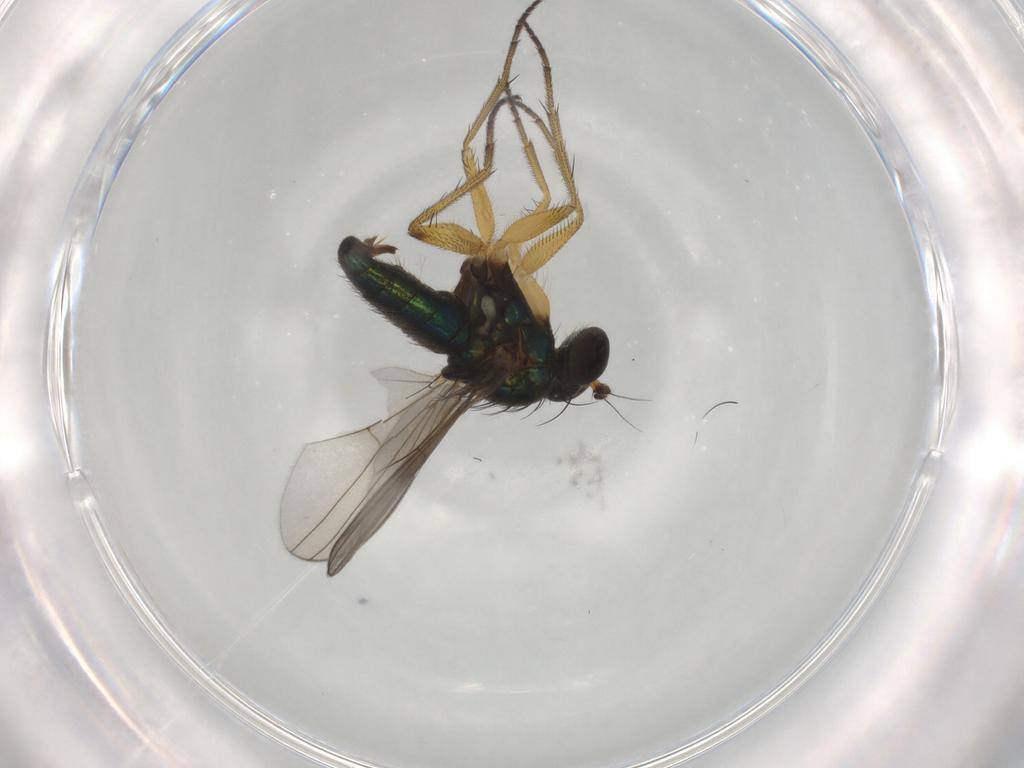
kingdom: Animalia
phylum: Arthropoda
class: Insecta
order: Diptera
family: Dolichopodidae
